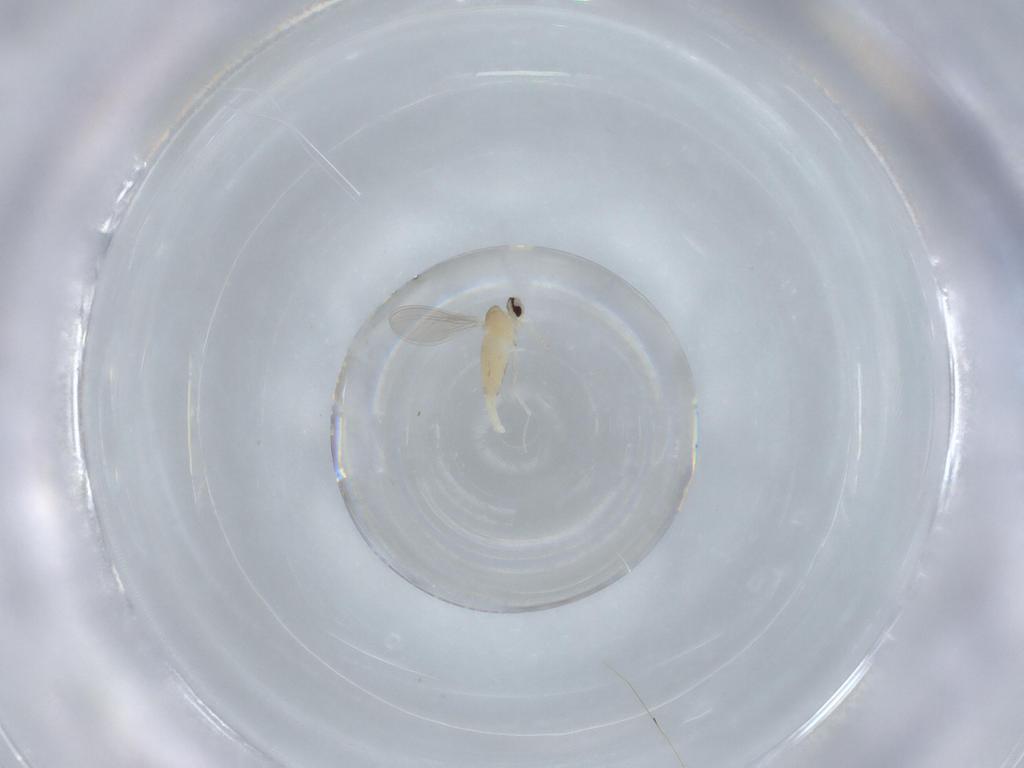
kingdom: Animalia
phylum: Arthropoda
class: Insecta
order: Diptera
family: Cecidomyiidae
